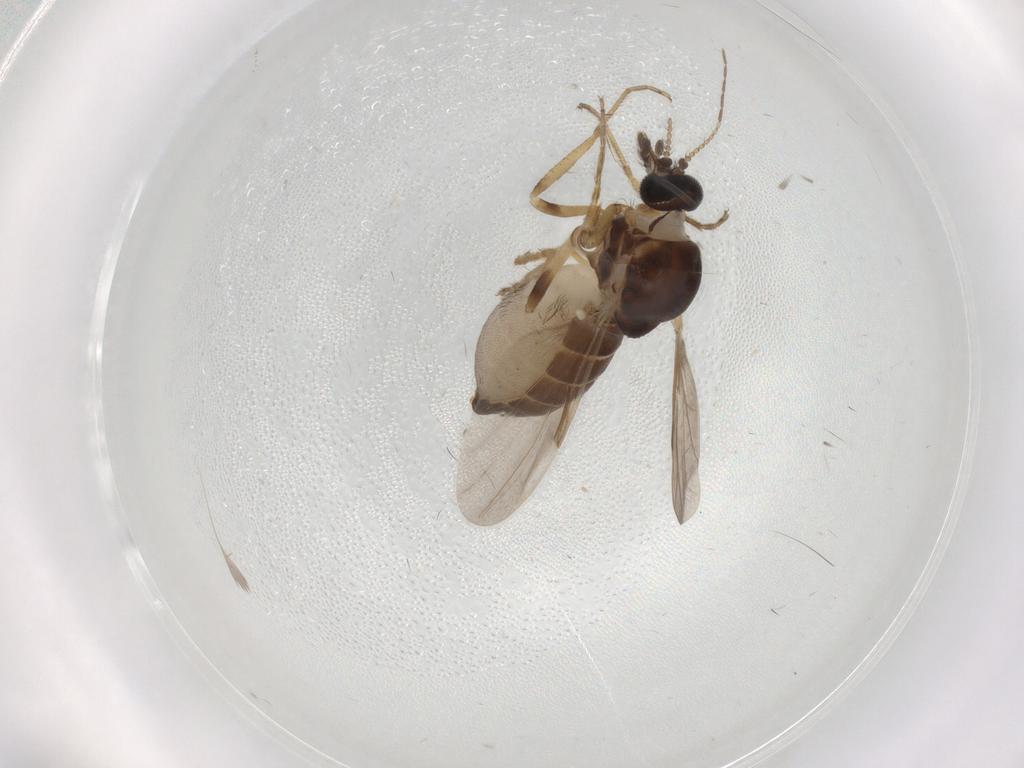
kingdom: Animalia
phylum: Arthropoda
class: Insecta
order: Diptera
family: Ceratopogonidae
